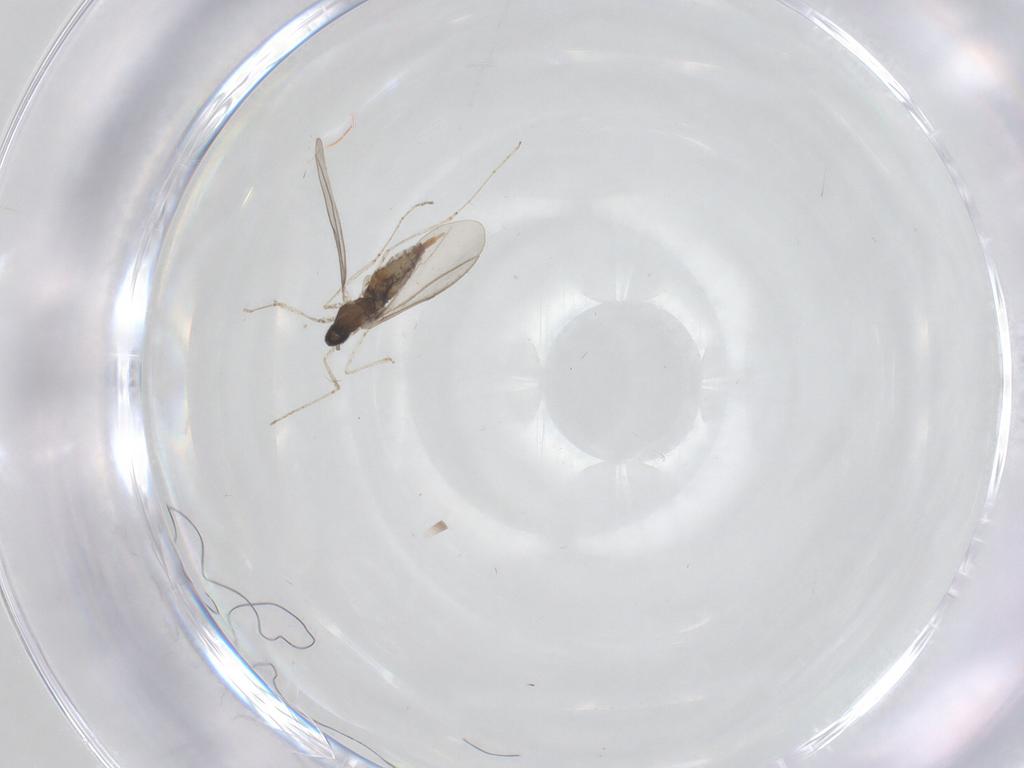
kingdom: Animalia
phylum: Arthropoda
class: Insecta
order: Diptera
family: Cecidomyiidae
